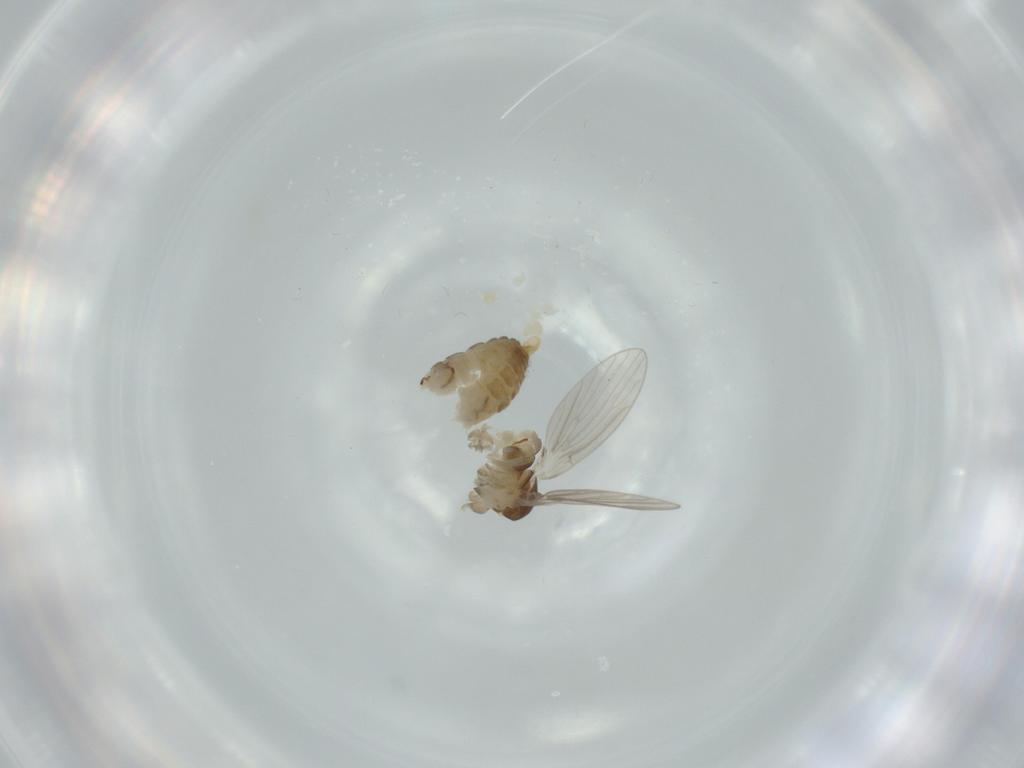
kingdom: Animalia
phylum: Arthropoda
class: Insecta
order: Diptera
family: Psychodidae
